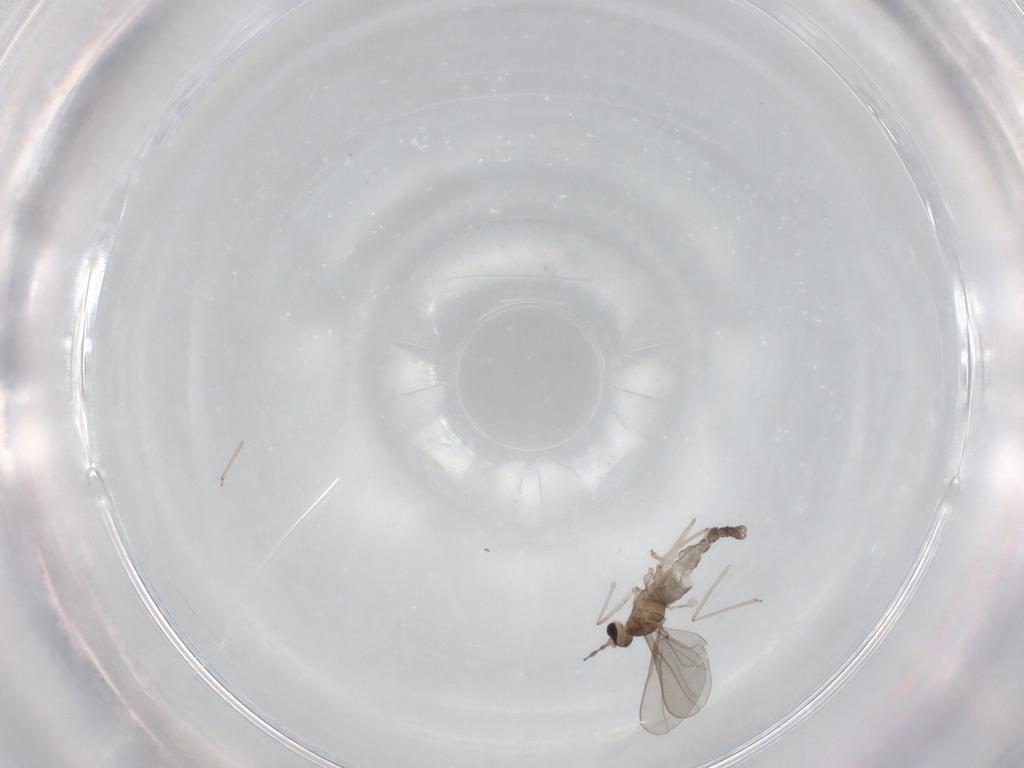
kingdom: Animalia
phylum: Arthropoda
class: Insecta
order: Diptera
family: Cecidomyiidae
